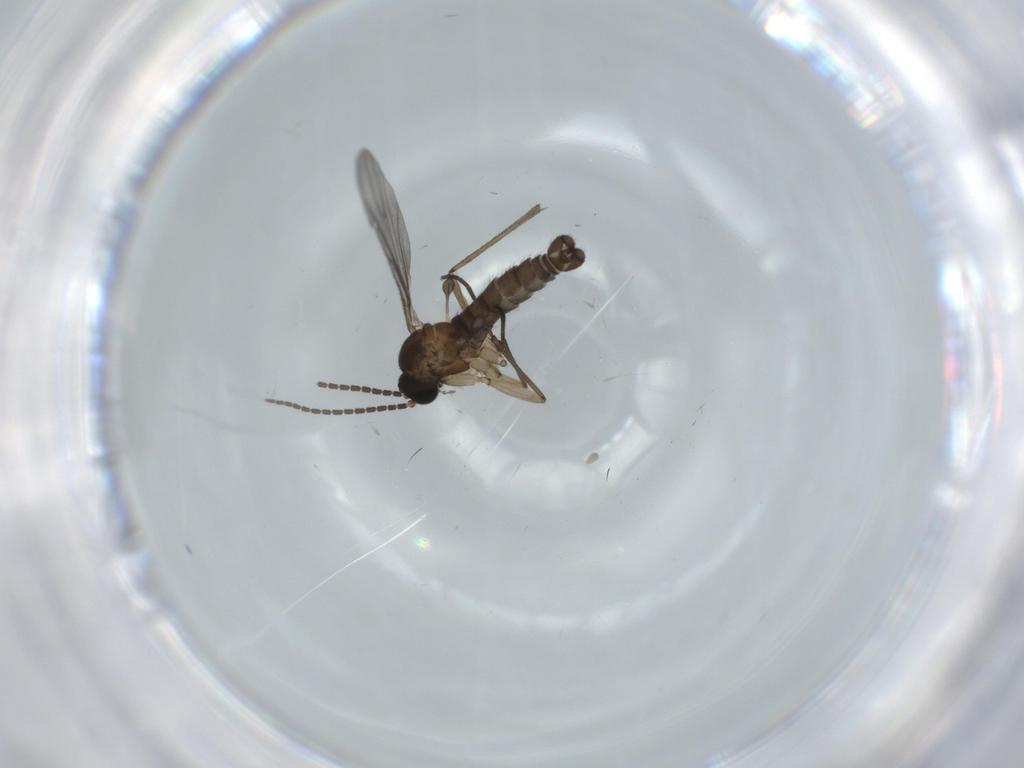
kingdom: Animalia
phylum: Arthropoda
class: Insecta
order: Diptera
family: Sciaridae
